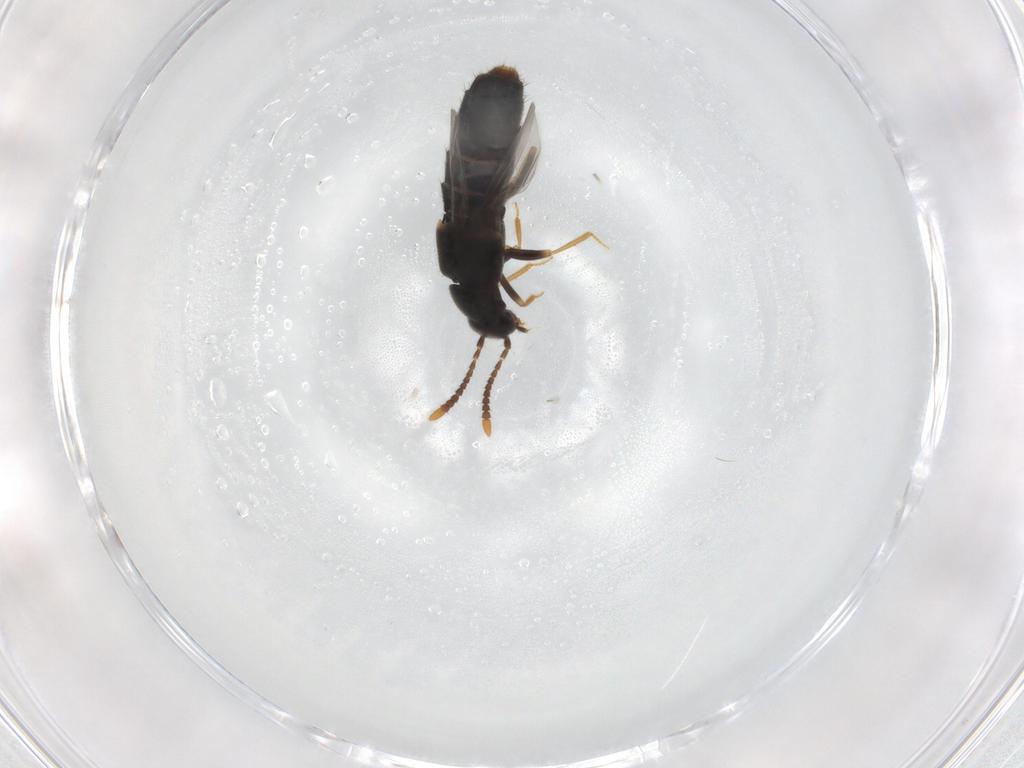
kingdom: Animalia
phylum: Arthropoda
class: Insecta
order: Coleoptera
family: Staphylinidae
